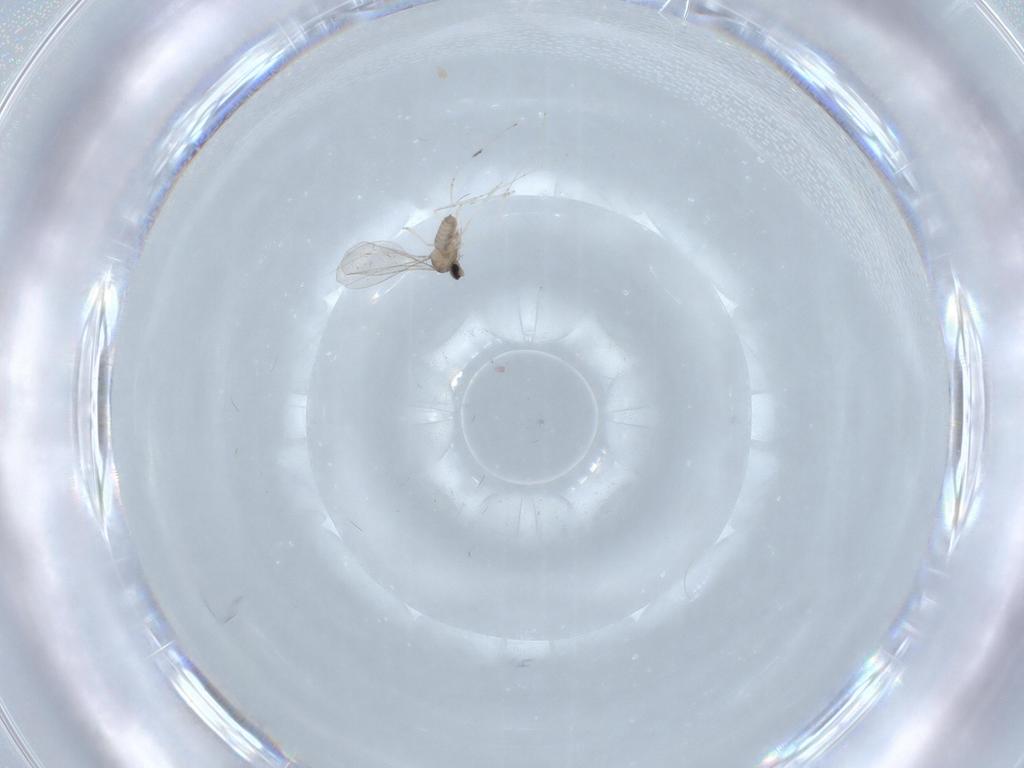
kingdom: Animalia
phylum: Arthropoda
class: Insecta
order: Diptera
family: Cecidomyiidae
